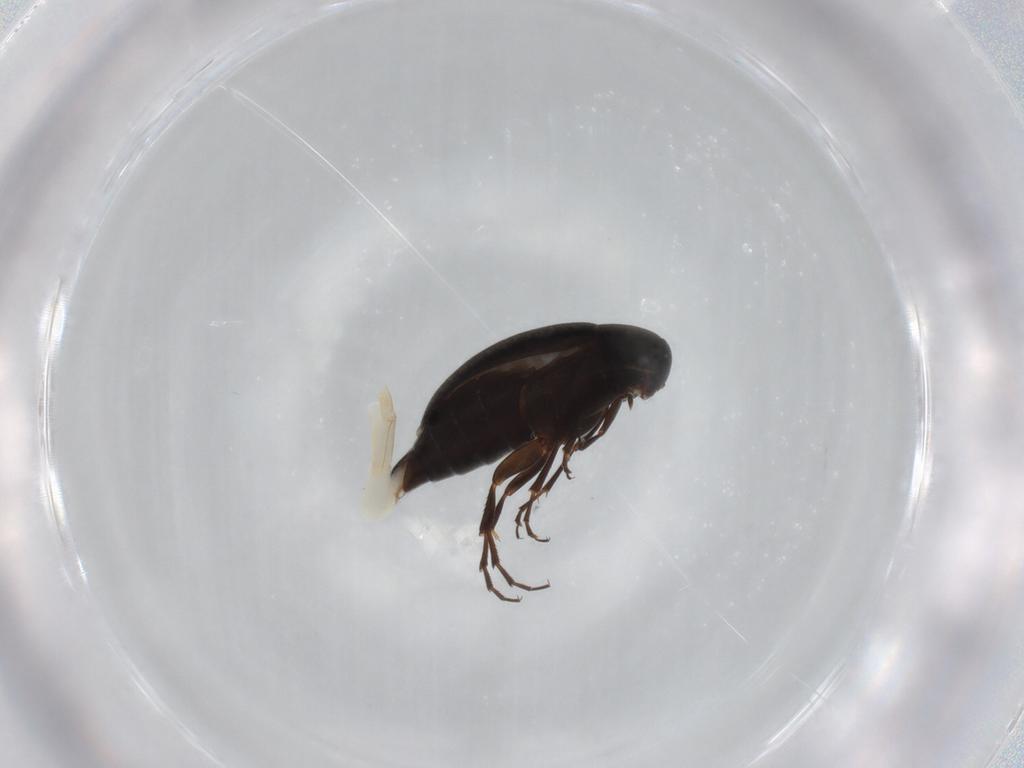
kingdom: Animalia
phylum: Arthropoda
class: Insecta
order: Coleoptera
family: Scraptiidae
